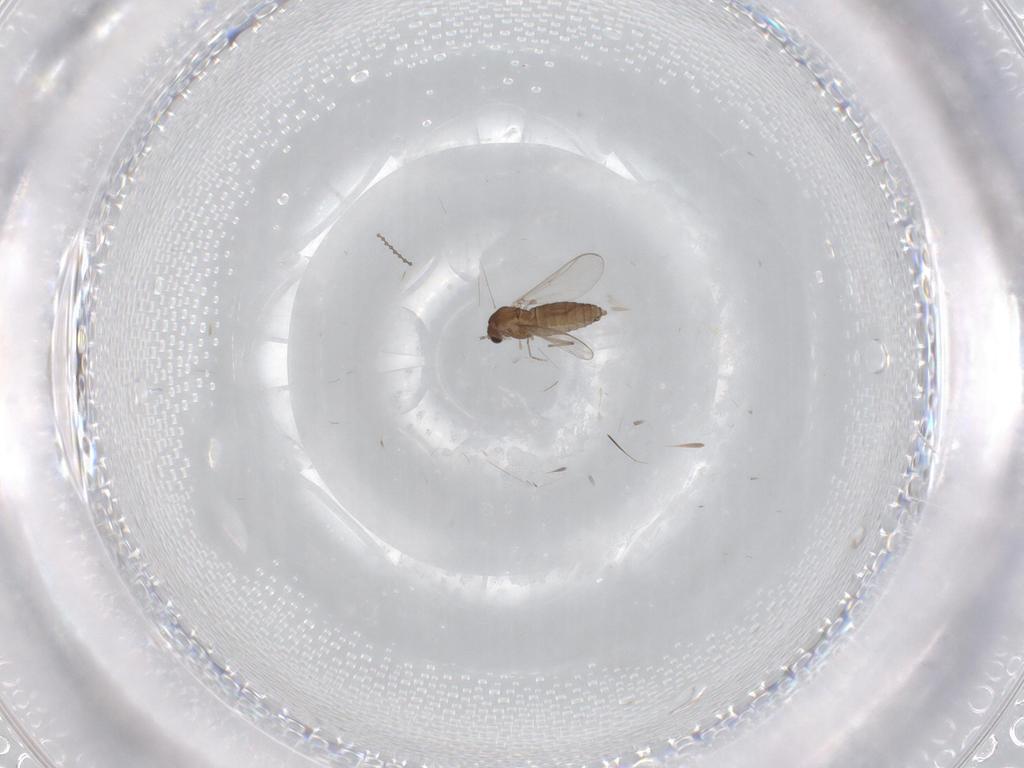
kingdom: Animalia
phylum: Arthropoda
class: Insecta
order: Diptera
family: Chironomidae
